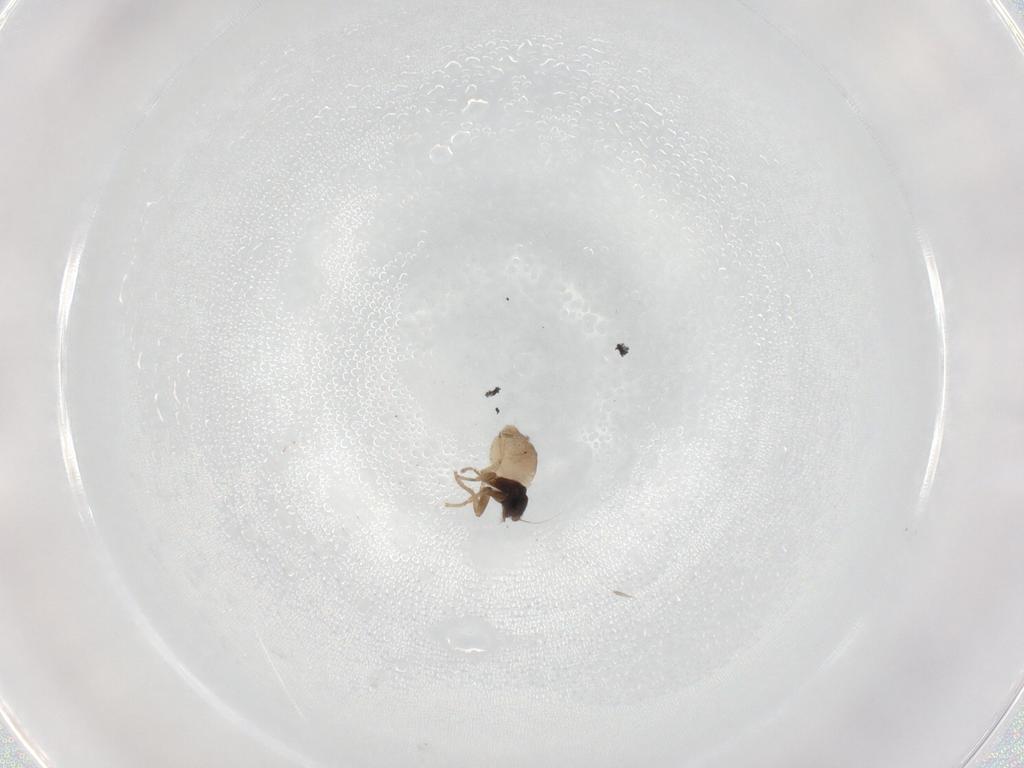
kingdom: Animalia
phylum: Arthropoda
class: Insecta
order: Diptera
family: Phoridae
